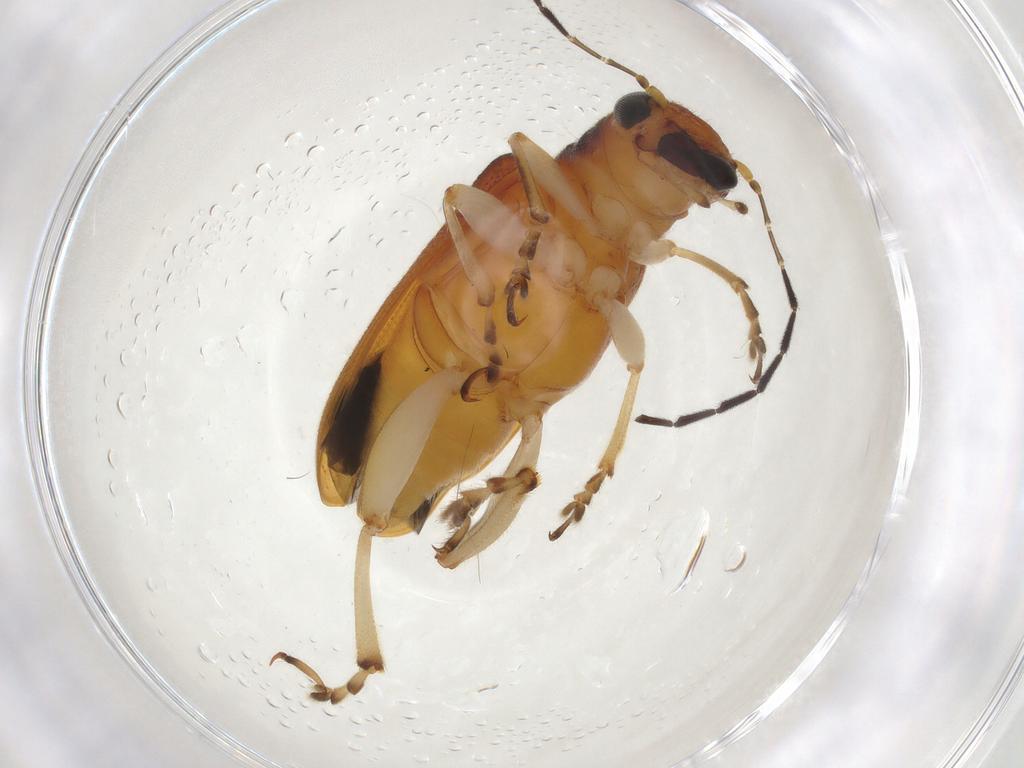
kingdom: Animalia
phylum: Arthropoda
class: Insecta
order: Coleoptera
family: Chrysomelidae
